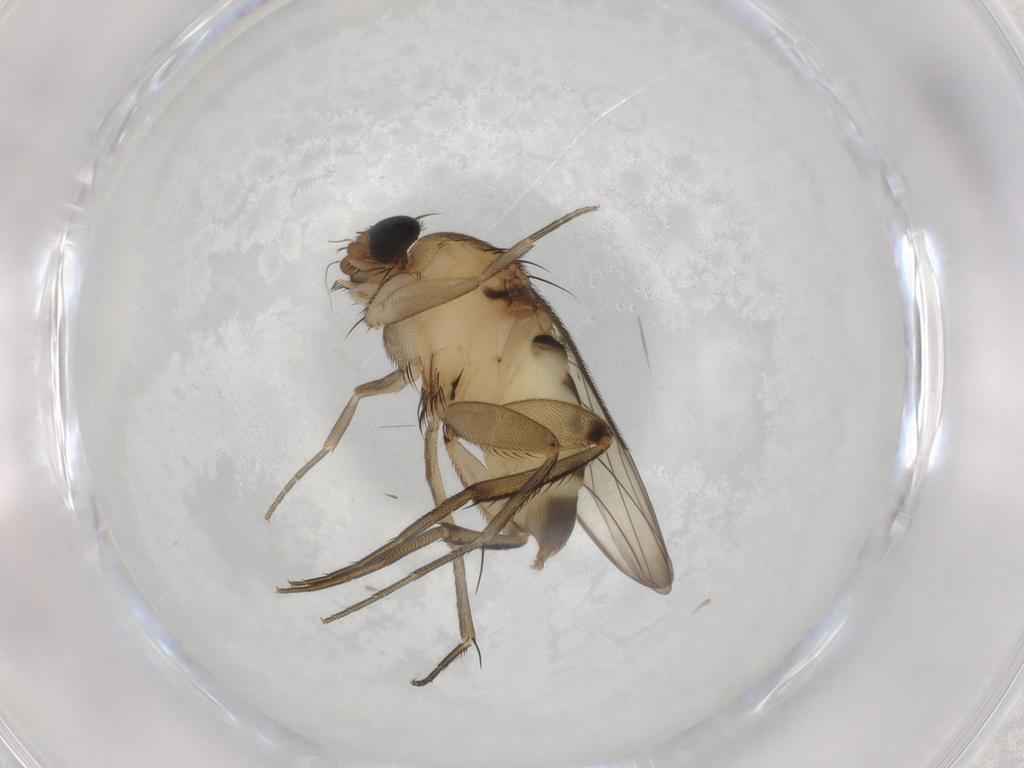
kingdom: Animalia
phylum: Arthropoda
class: Insecta
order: Diptera
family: Phoridae
